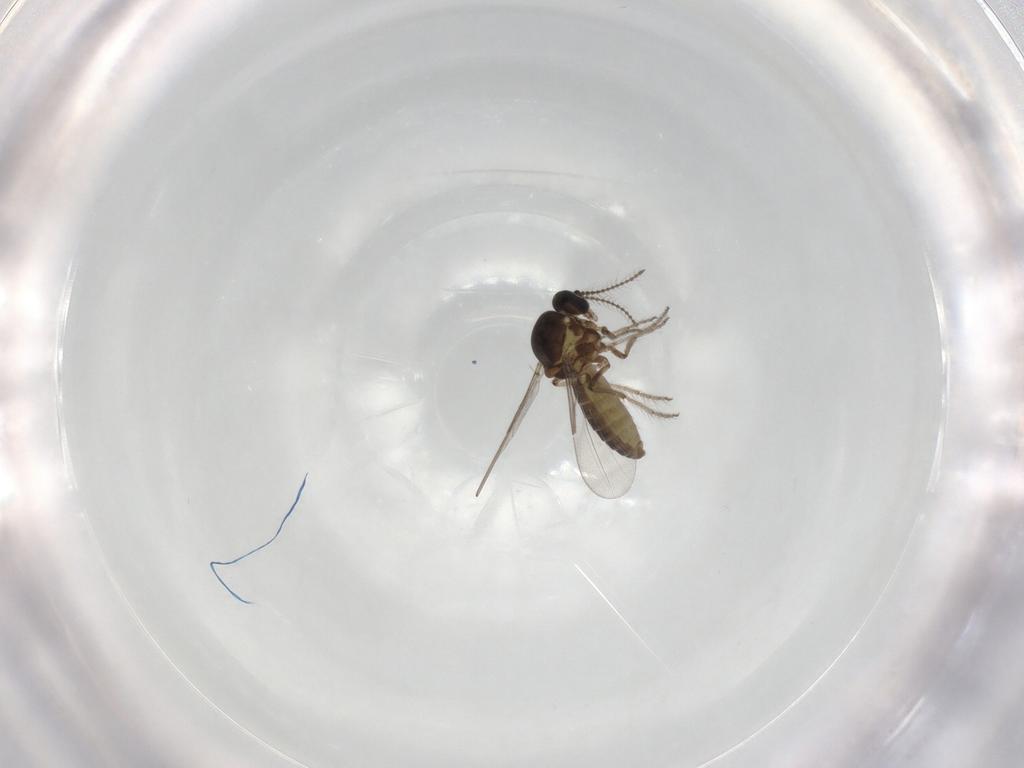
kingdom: Animalia
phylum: Arthropoda
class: Insecta
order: Diptera
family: Ceratopogonidae
